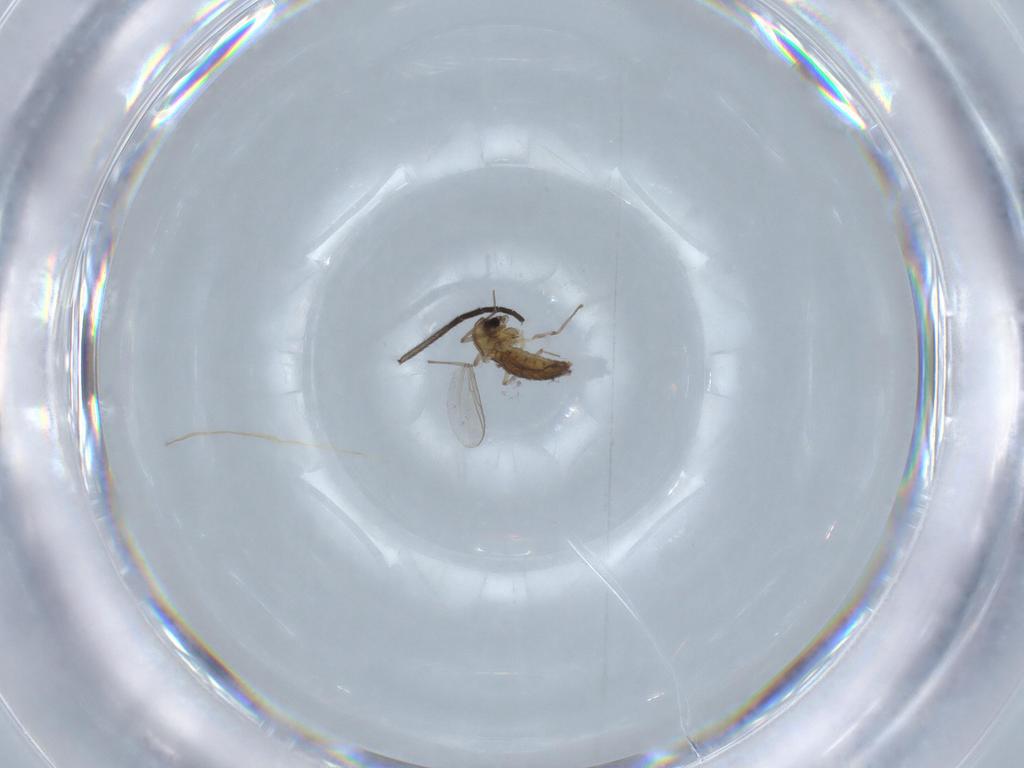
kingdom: Animalia
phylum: Arthropoda
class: Insecta
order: Diptera
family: Chironomidae
